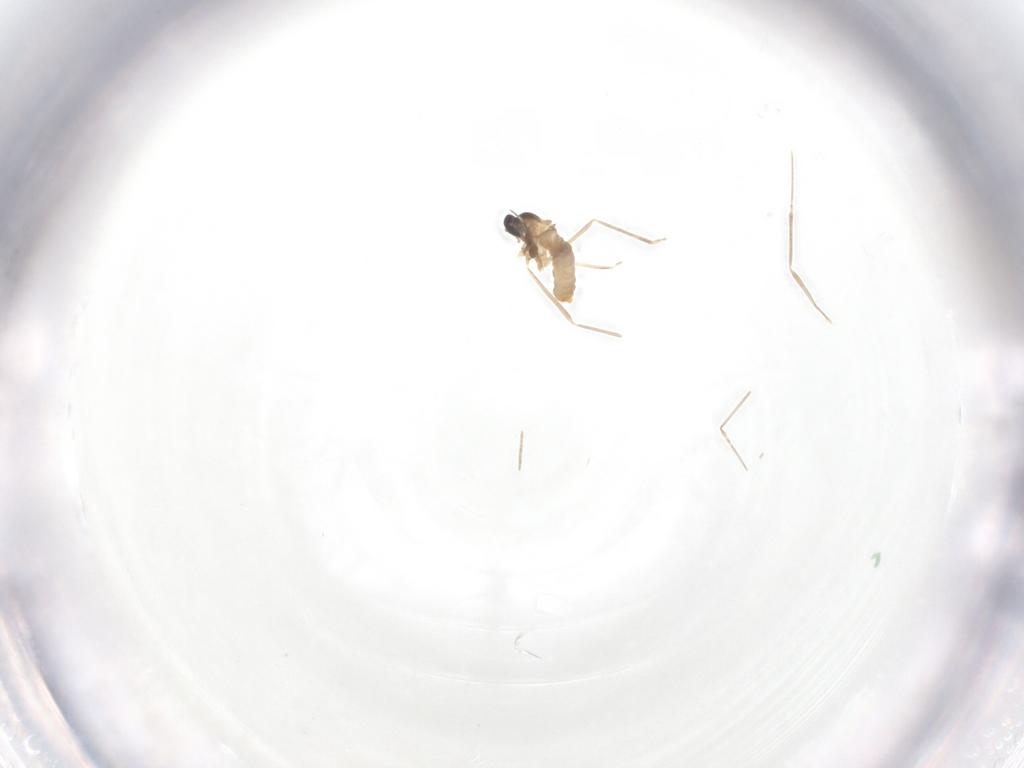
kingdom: Animalia
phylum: Arthropoda
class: Insecta
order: Diptera
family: Cecidomyiidae
